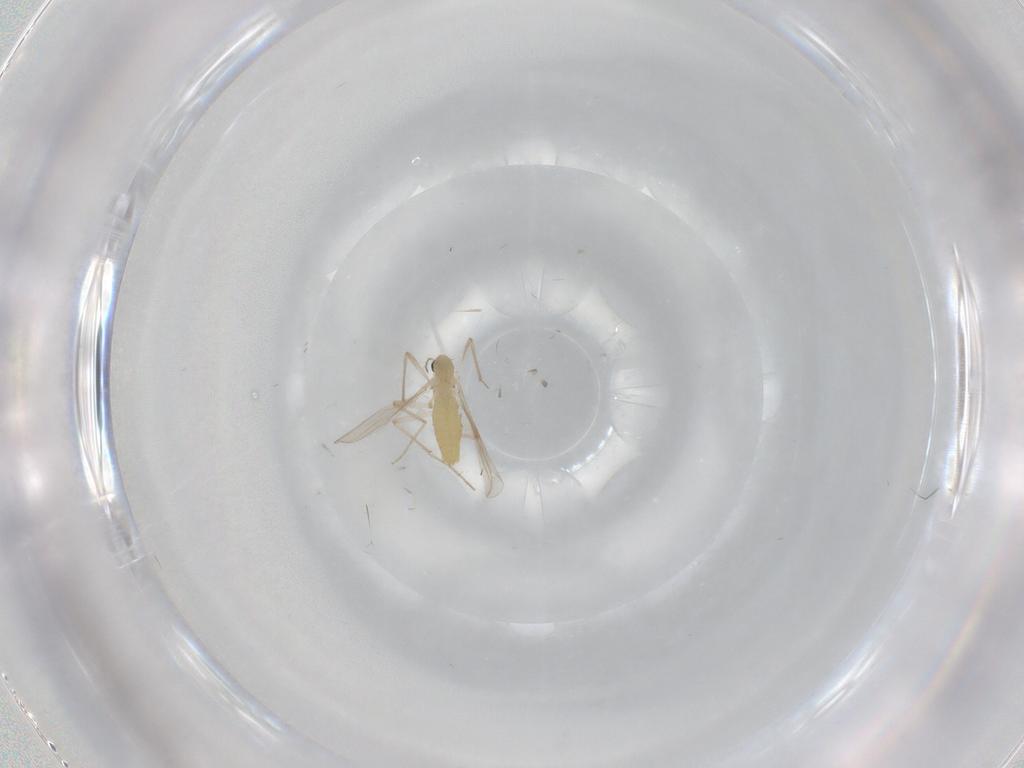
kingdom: Animalia
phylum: Arthropoda
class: Insecta
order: Diptera
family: Chironomidae
